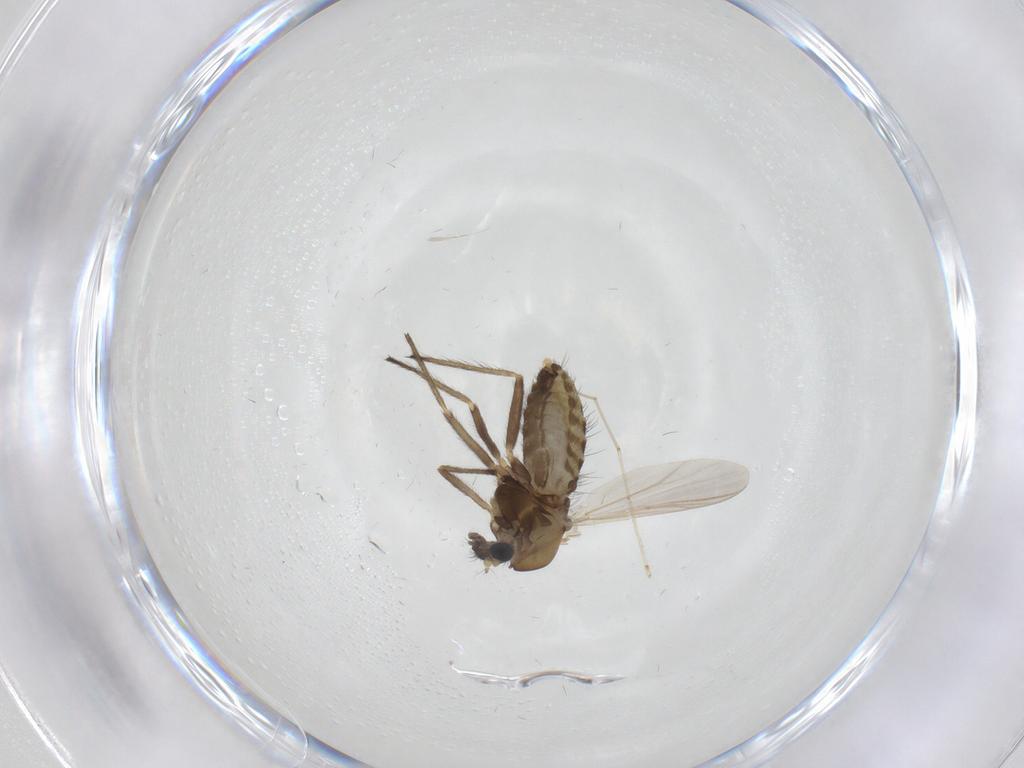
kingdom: Animalia
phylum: Arthropoda
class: Insecta
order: Diptera
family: Chironomidae
